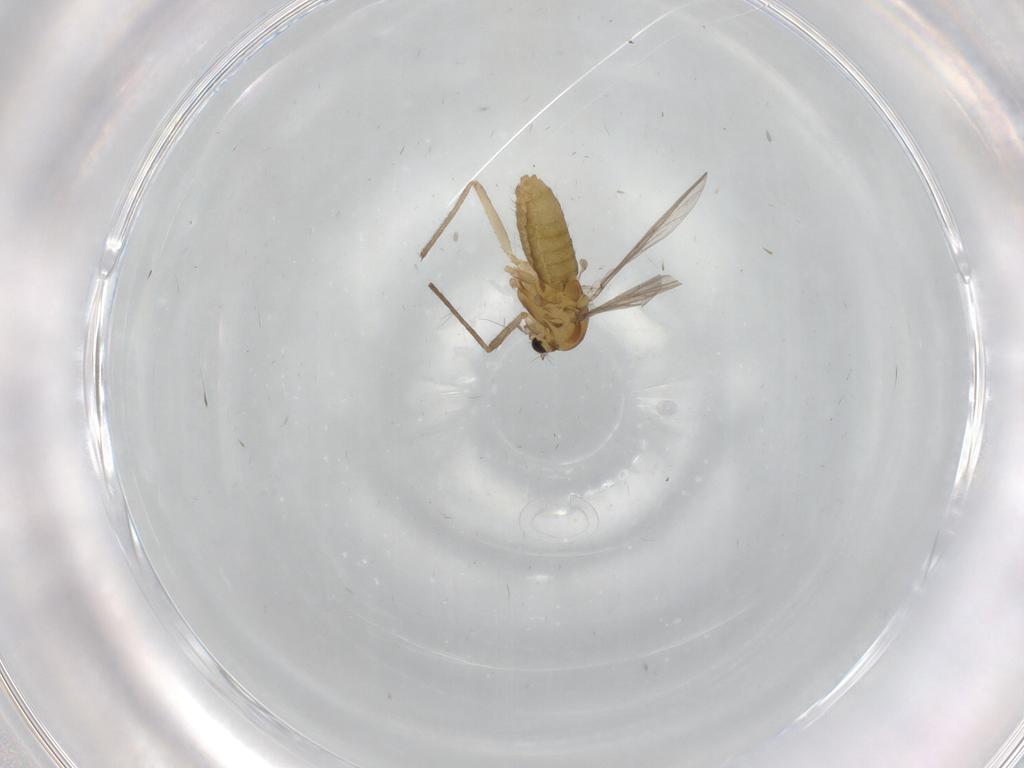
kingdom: Animalia
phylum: Arthropoda
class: Insecta
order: Diptera
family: Chironomidae
